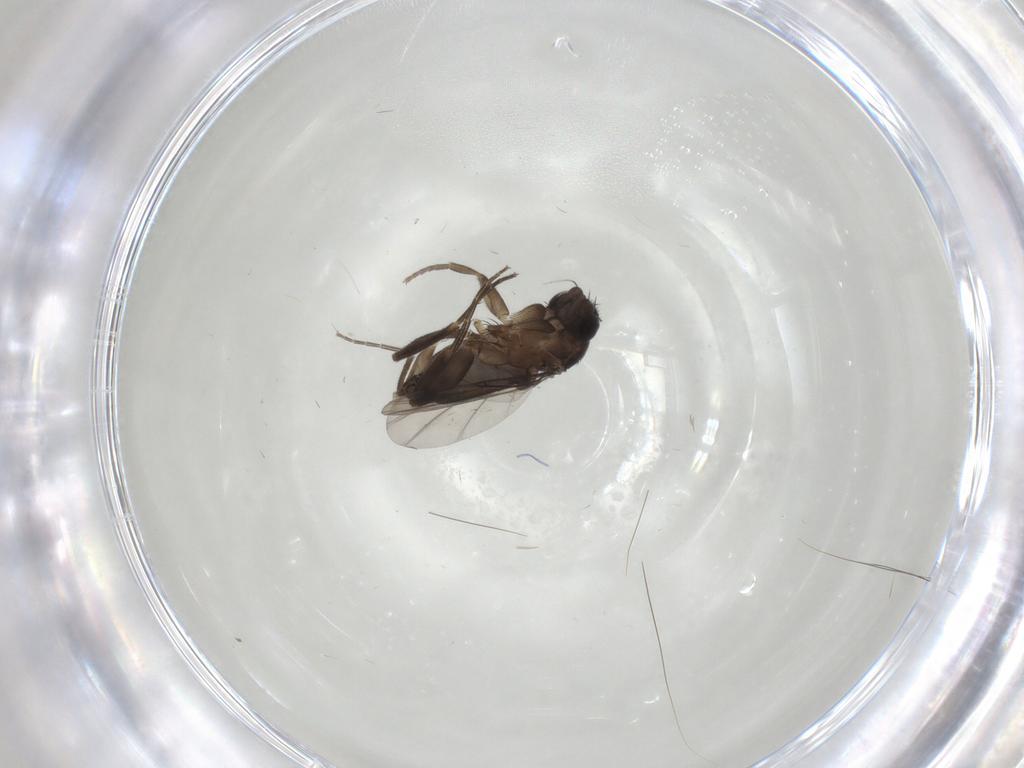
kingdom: Animalia
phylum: Arthropoda
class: Insecta
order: Diptera
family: Phoridae
